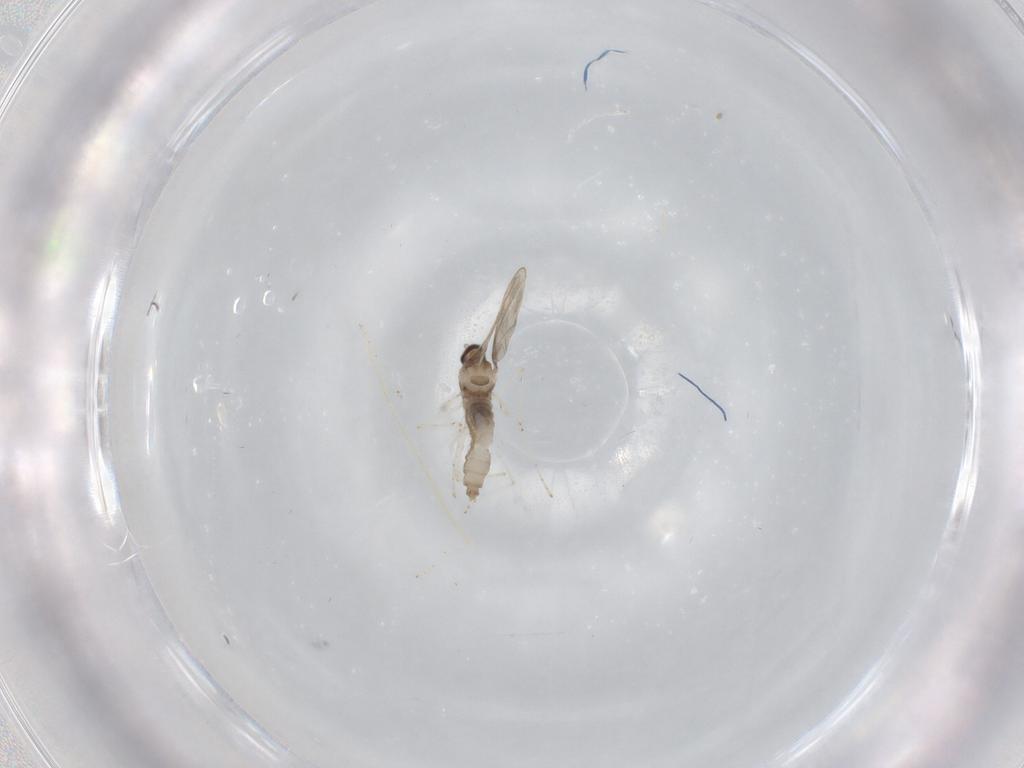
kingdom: Animalia
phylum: Arthropoda
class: Insecta
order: Diptera
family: Cecidomyiidae
